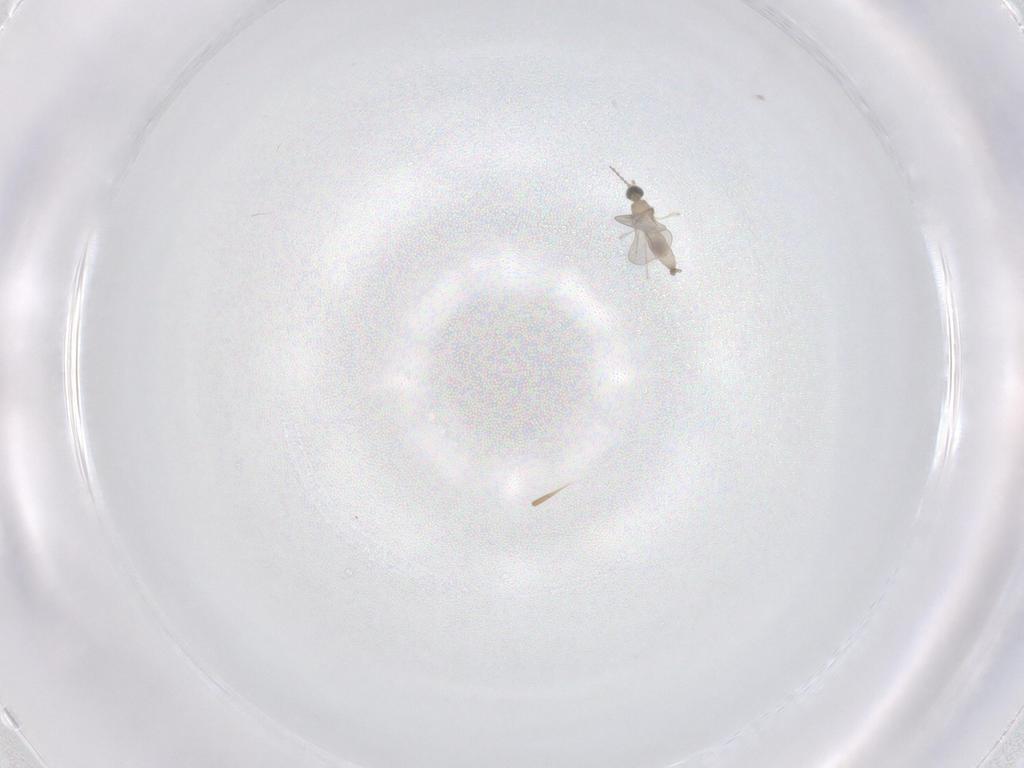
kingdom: Animalia
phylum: Arthropoda
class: Insecta
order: Diptera
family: Cecidomyiidae
